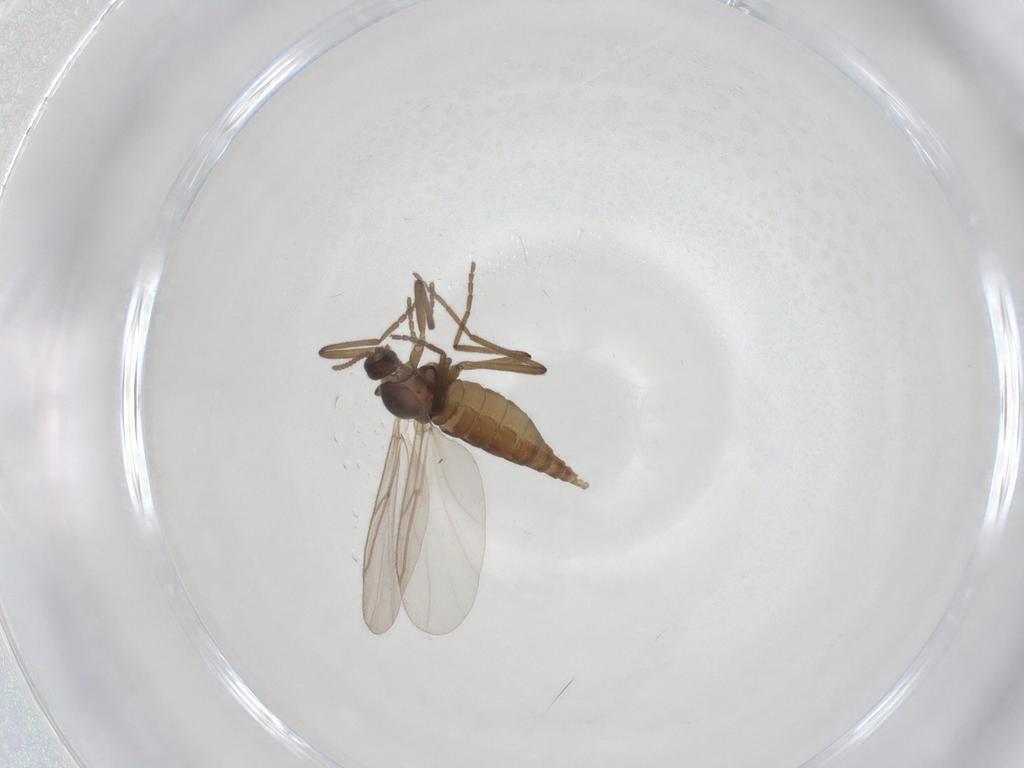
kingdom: Animalia
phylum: Arthropoda
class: Insecta
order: Diptera
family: Cecidomyiidae
